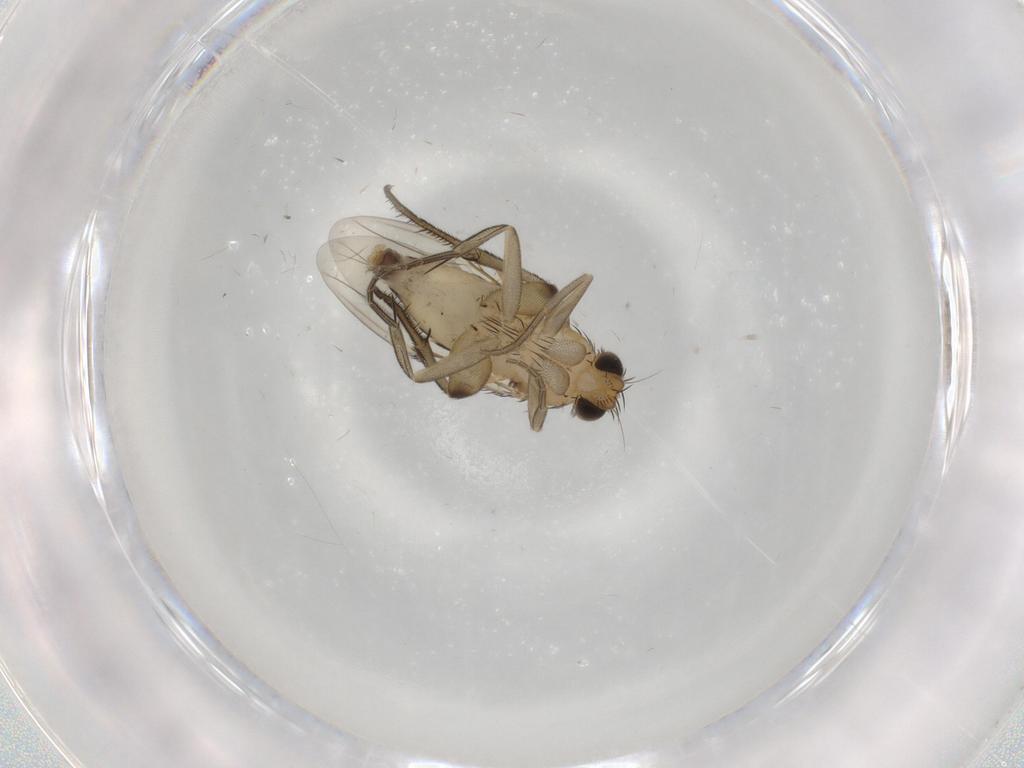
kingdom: Animalia
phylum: Arthropoda
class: Insecta
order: Diptera
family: Phoridae
